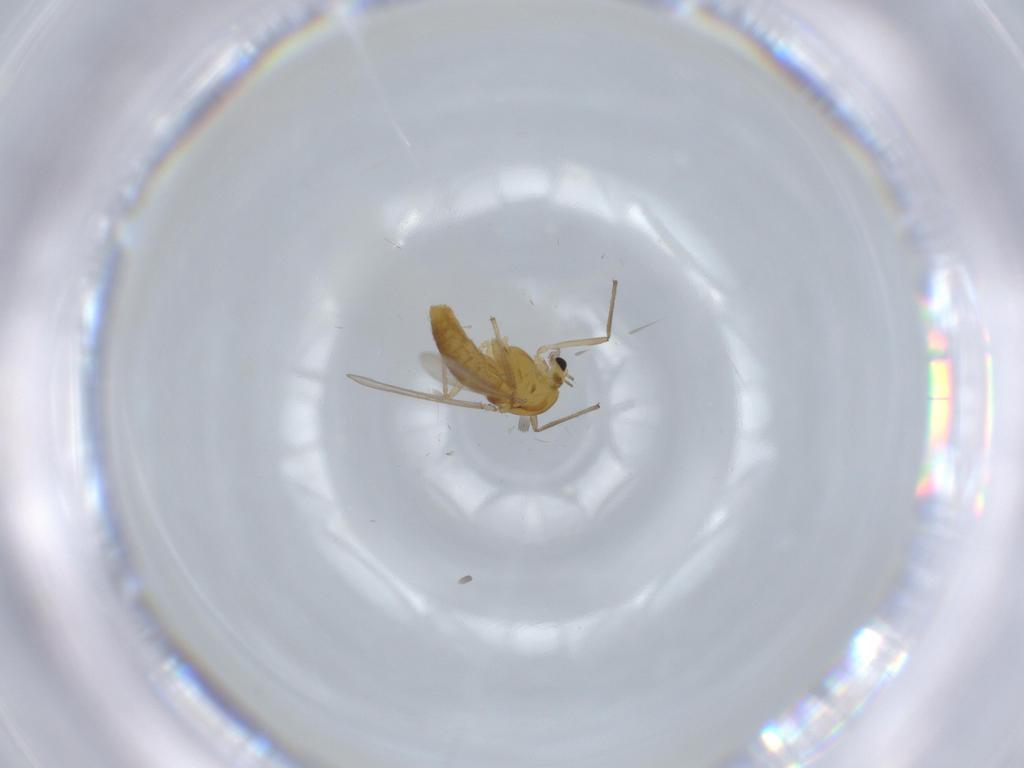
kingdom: Animalia
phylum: Arthropoda
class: Insecta
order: Diptera
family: Chironomidae
